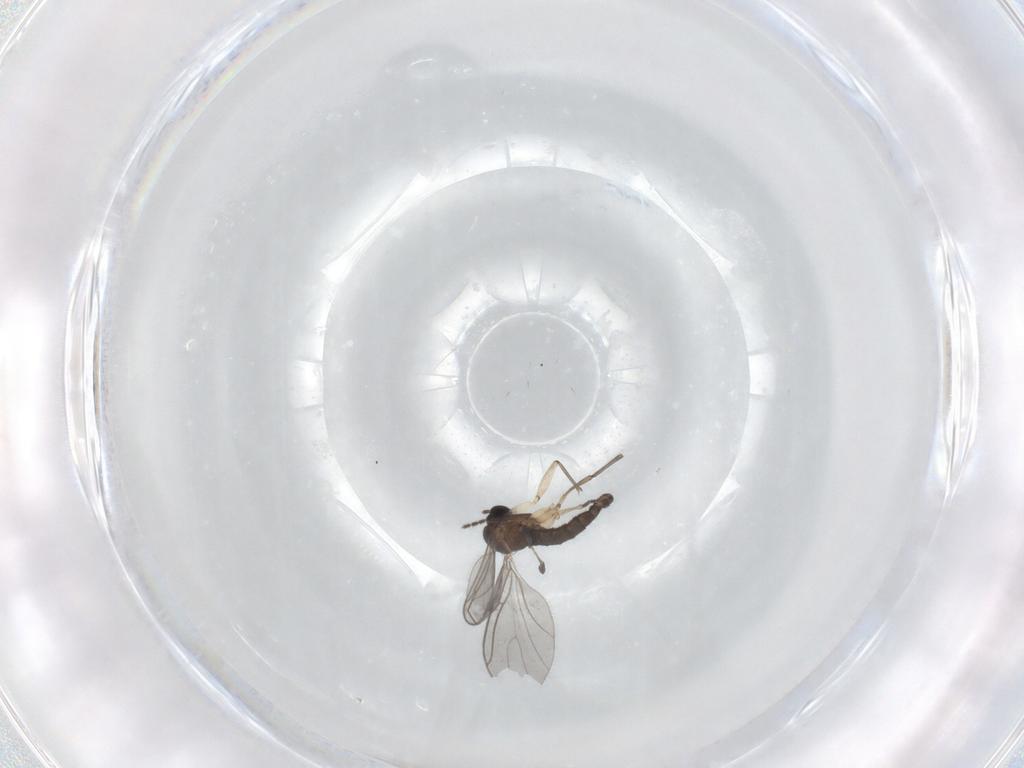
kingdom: Animalia
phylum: Arthropoda
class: Insecta
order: Diptera
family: Sciaridae
